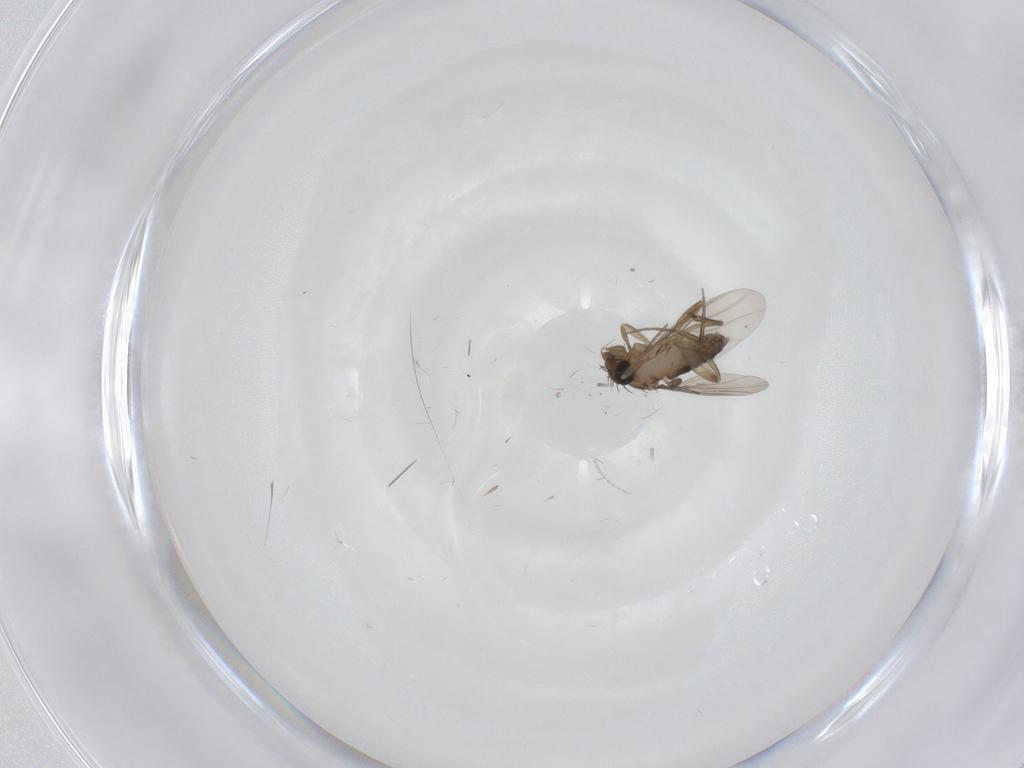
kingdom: Animalia
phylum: Arthropoda
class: Insecta
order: Diptera
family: Phoridae
